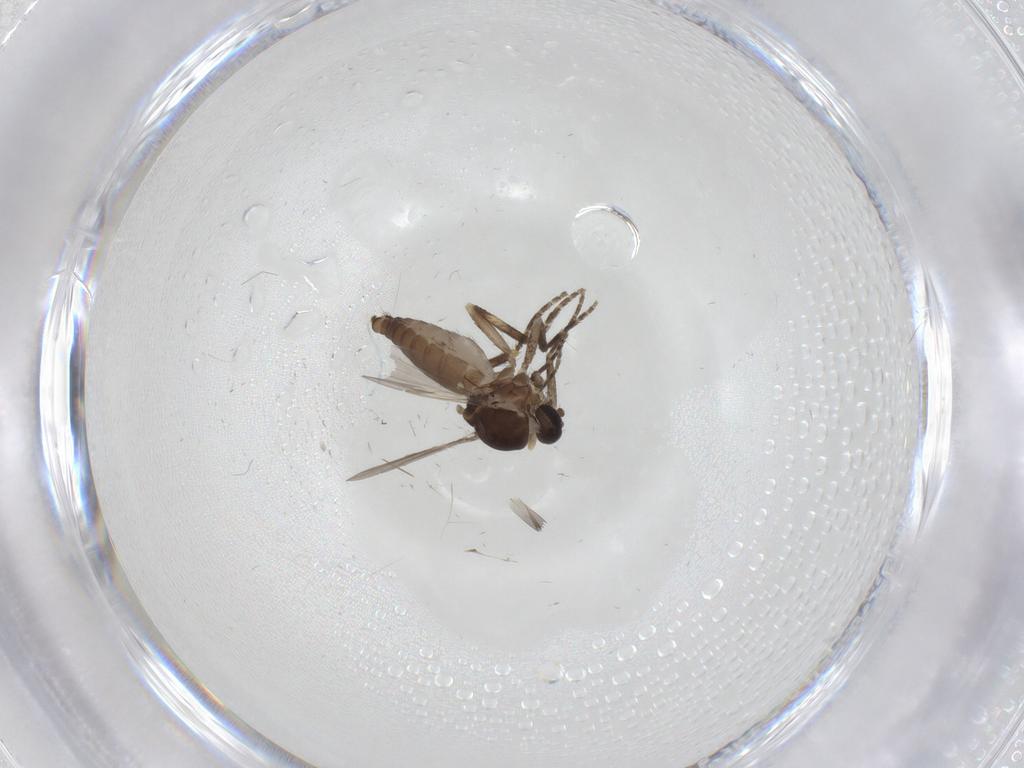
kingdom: Animalia
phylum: Arthropoda
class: Insecta
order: Diptera
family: Ceratopogonidae
